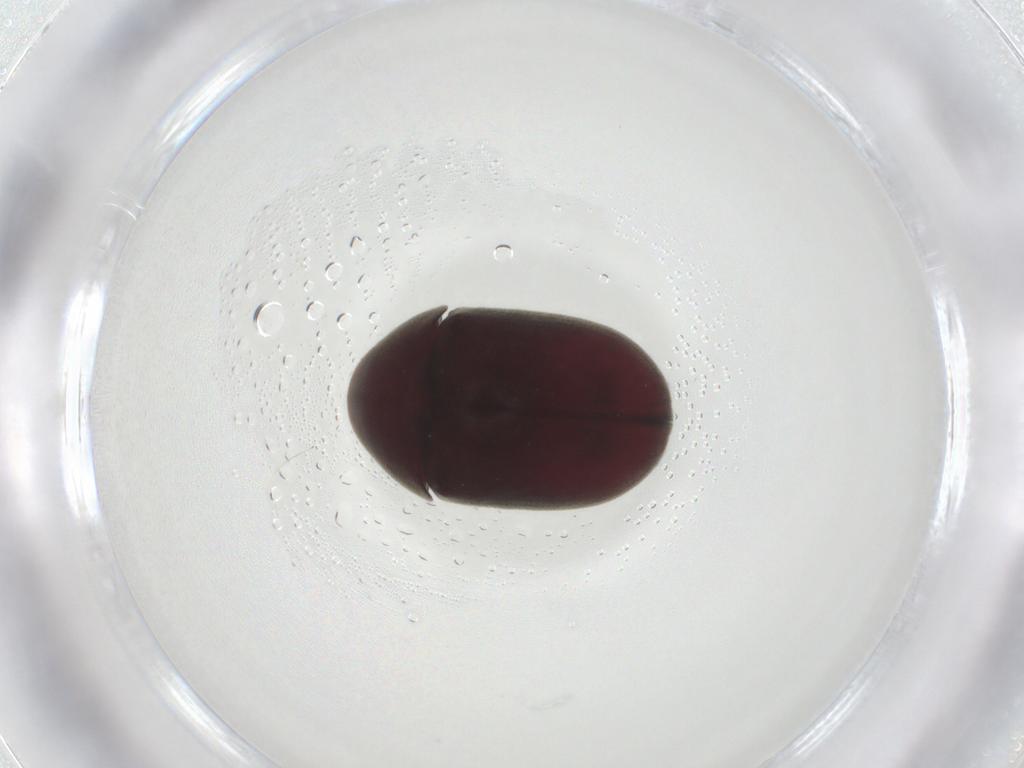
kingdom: Animalia
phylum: Arthropoda
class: Insecta
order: Coleoptera
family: Ptinidae
